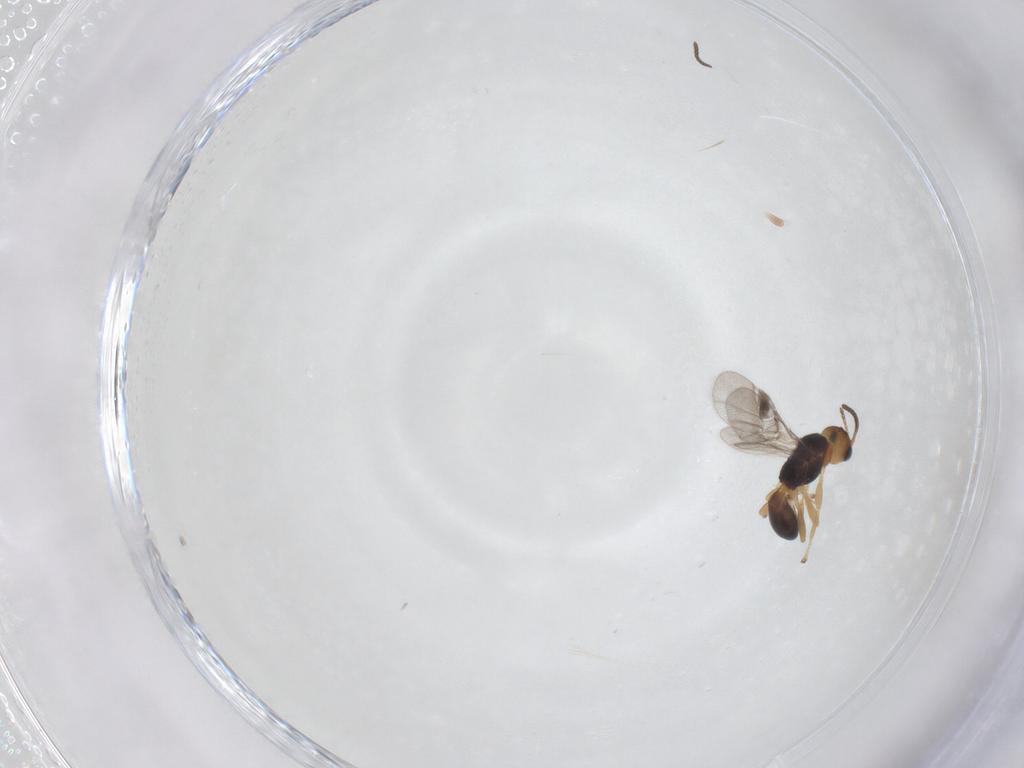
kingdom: Animalia
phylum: Arthropoda
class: Insecta
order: Hymenoptera
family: Braconidae
